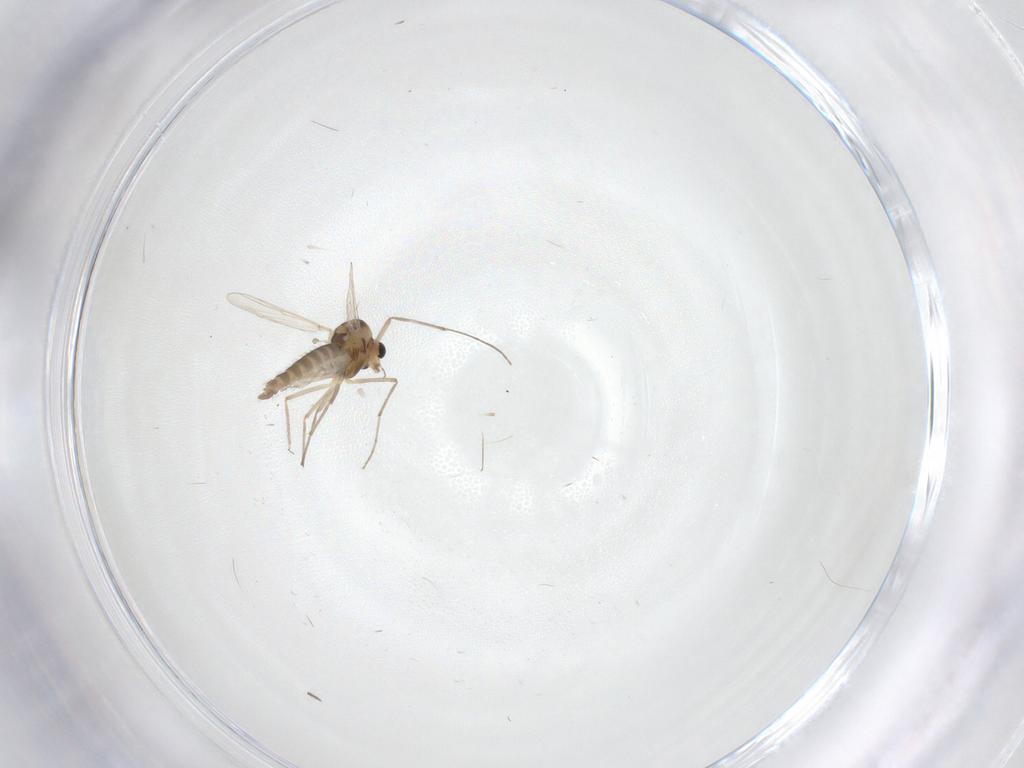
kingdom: Animalia
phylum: Arthropoda
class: Insecta
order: Diptera
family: Chironomidae
